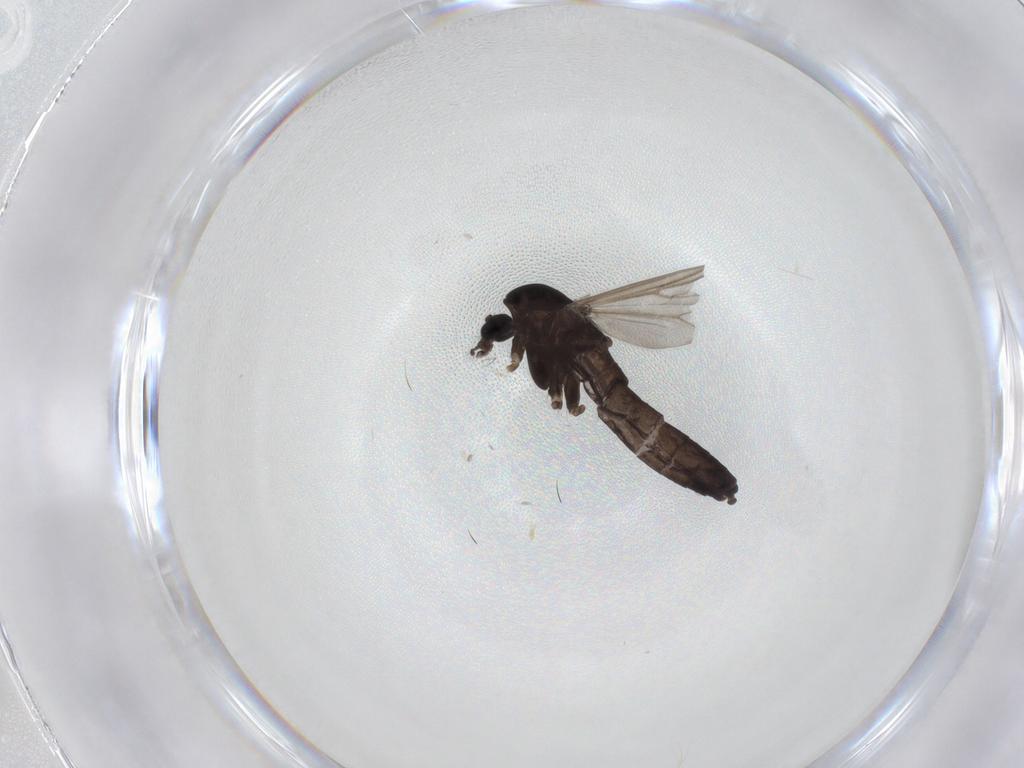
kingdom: Animalia
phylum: Arthropoda
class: Insecta
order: Diptera
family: Chironomidae
